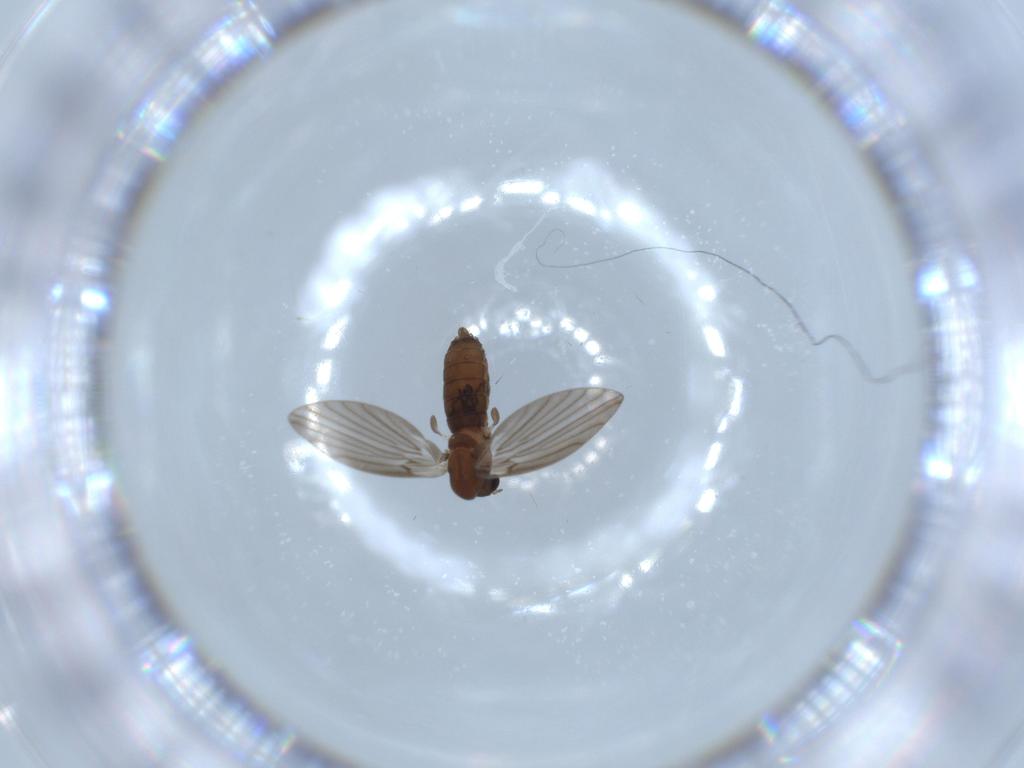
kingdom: Animalia
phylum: Arthropoda
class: Insecta
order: Diptera
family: Psychodidae
